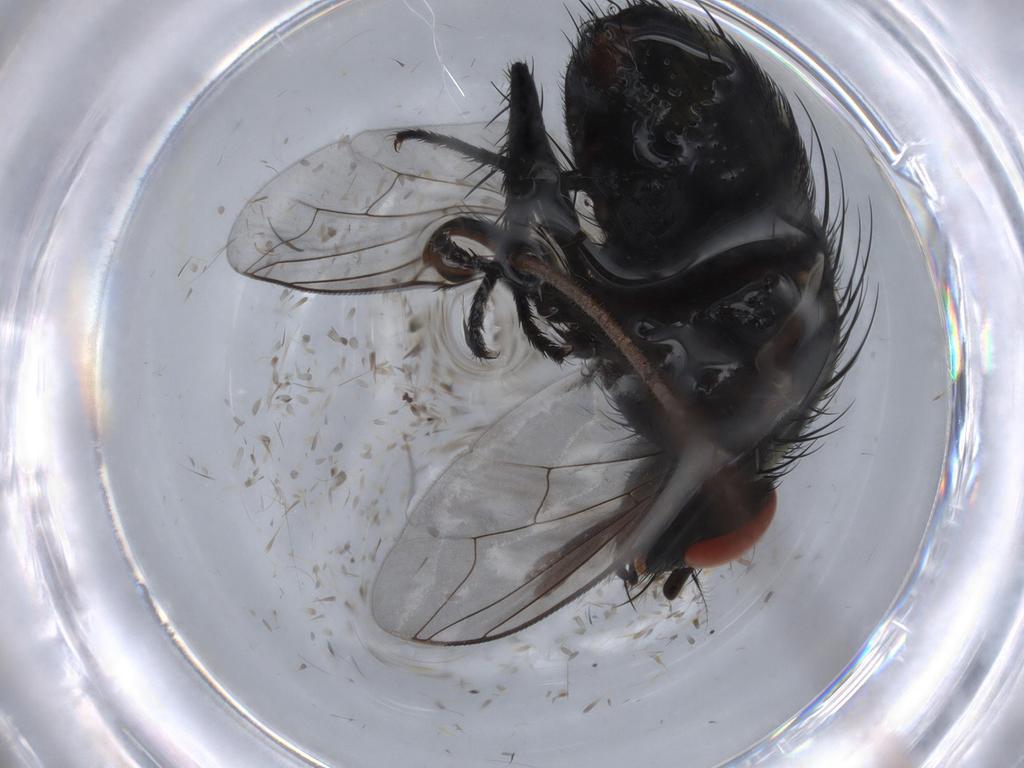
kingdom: Animalia
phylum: Arthropoda
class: Insecta
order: Diptera
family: Sarcophagidae
